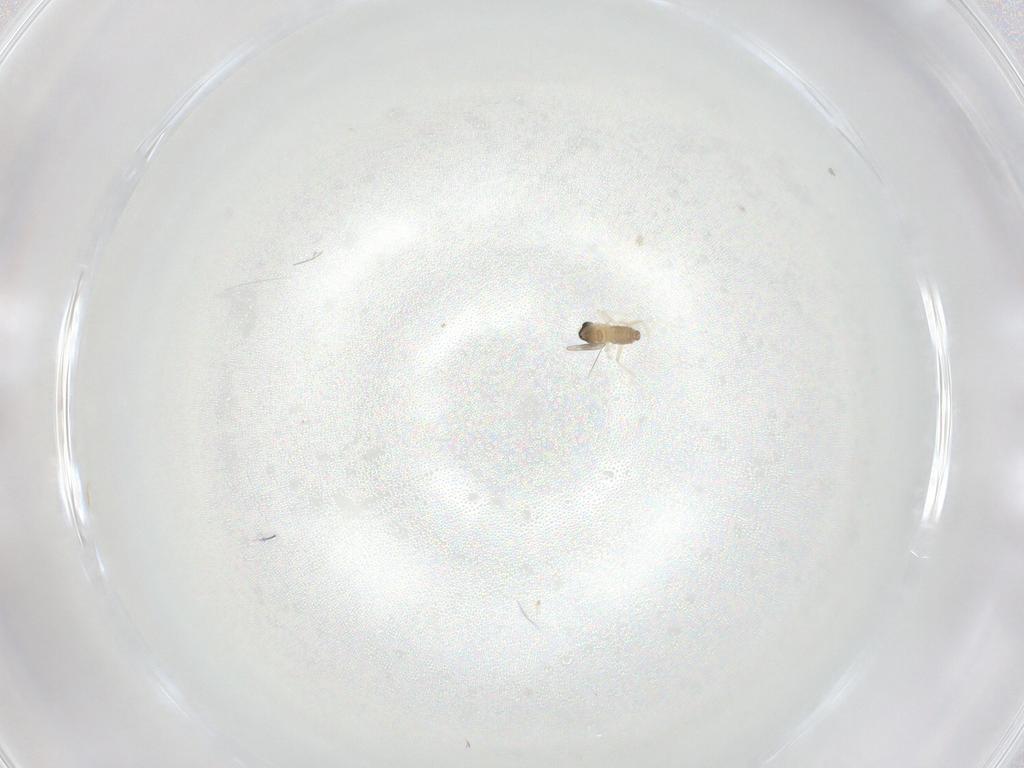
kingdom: Animalia
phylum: Arthropoda
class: Insecta
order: Diptera
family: Cecidomyiidae
